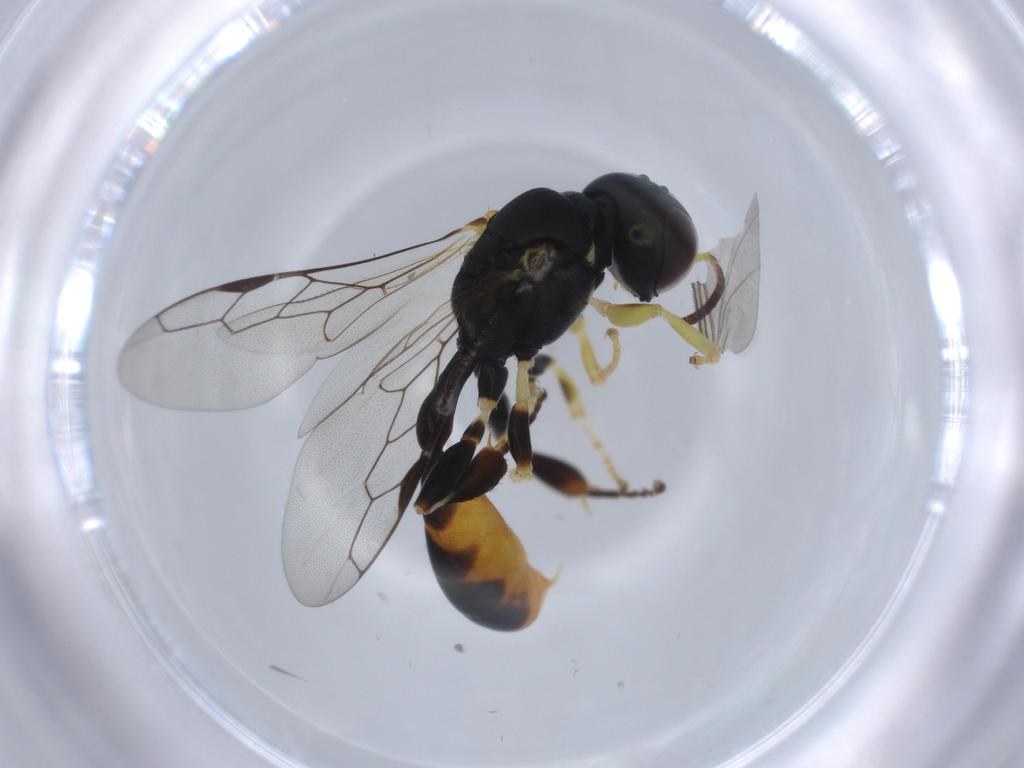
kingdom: Animalia
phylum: Arthropoda
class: Insecta
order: Hymenoptera
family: Crabronidae
